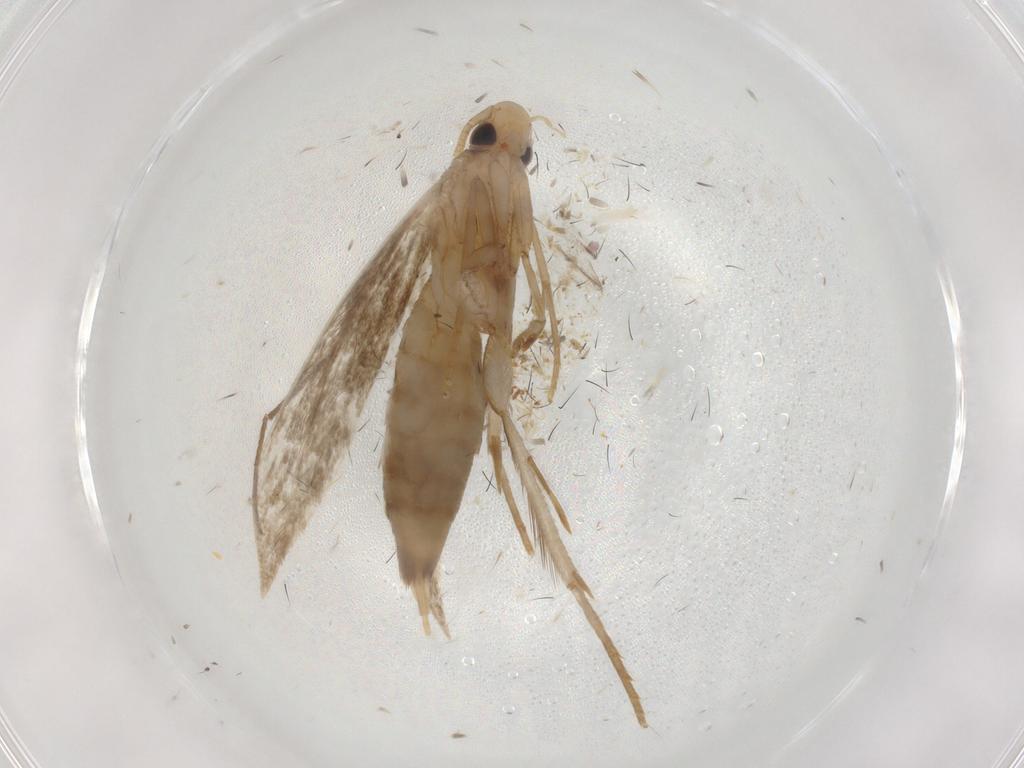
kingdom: Animalia
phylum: Arthropoda
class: Insecta
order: Lepidoptera
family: Tineidae
